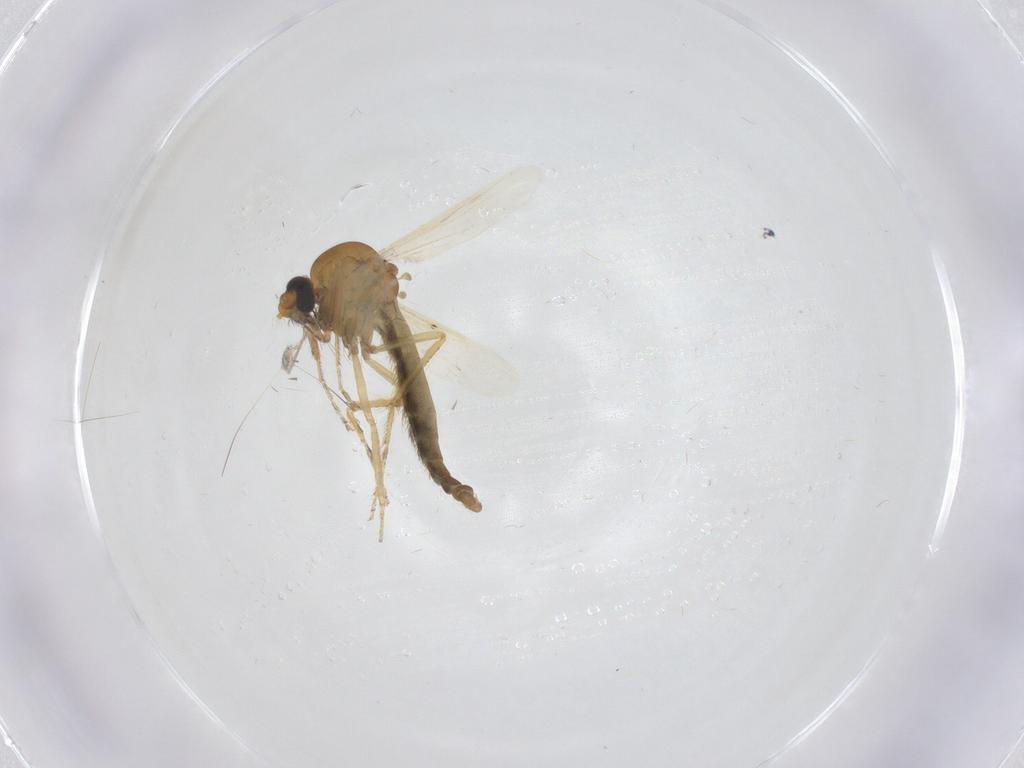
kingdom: Animalia
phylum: Arthropoda
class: Insecta
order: Diptera
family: Ceratopogonidae
